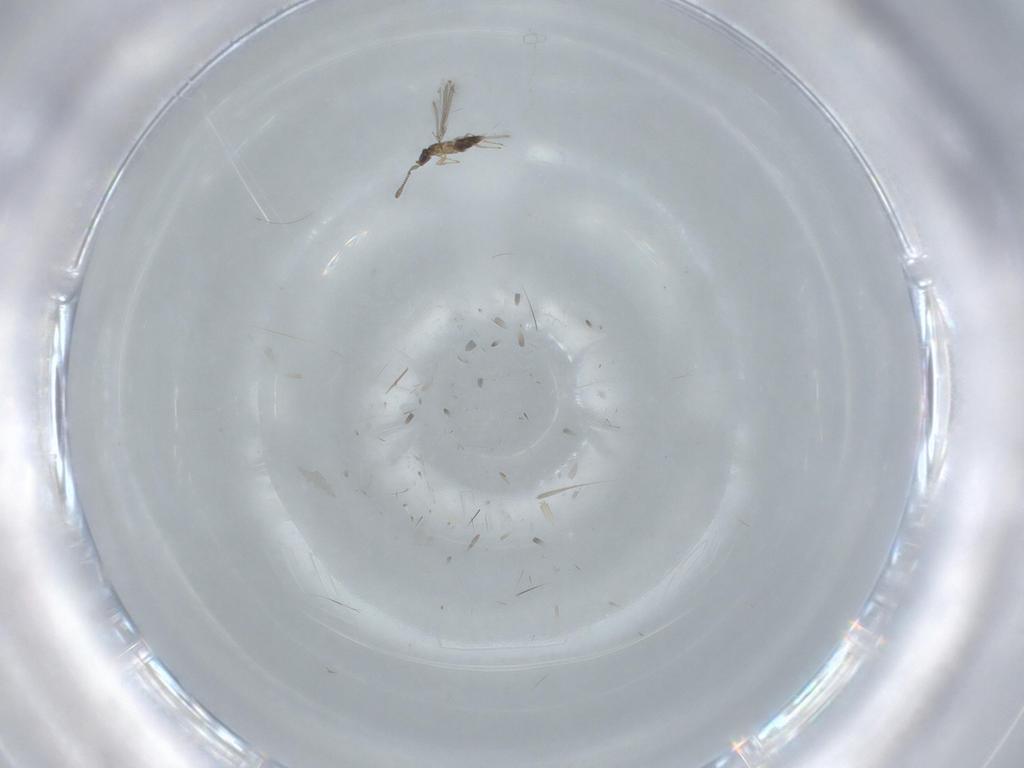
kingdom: Animalia
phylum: Arthropoda
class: Insecta
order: Hymenoptera
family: Mymaridae
